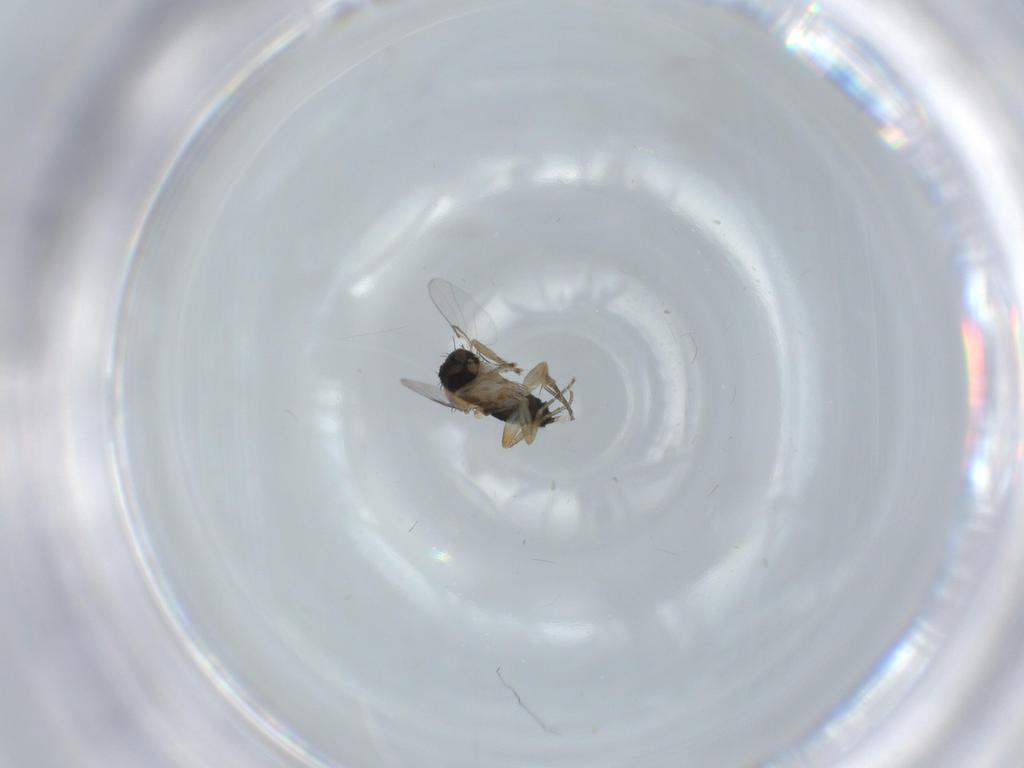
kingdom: Animalia
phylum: Arthropoda
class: Insecta
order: Diptera
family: Phoridae
